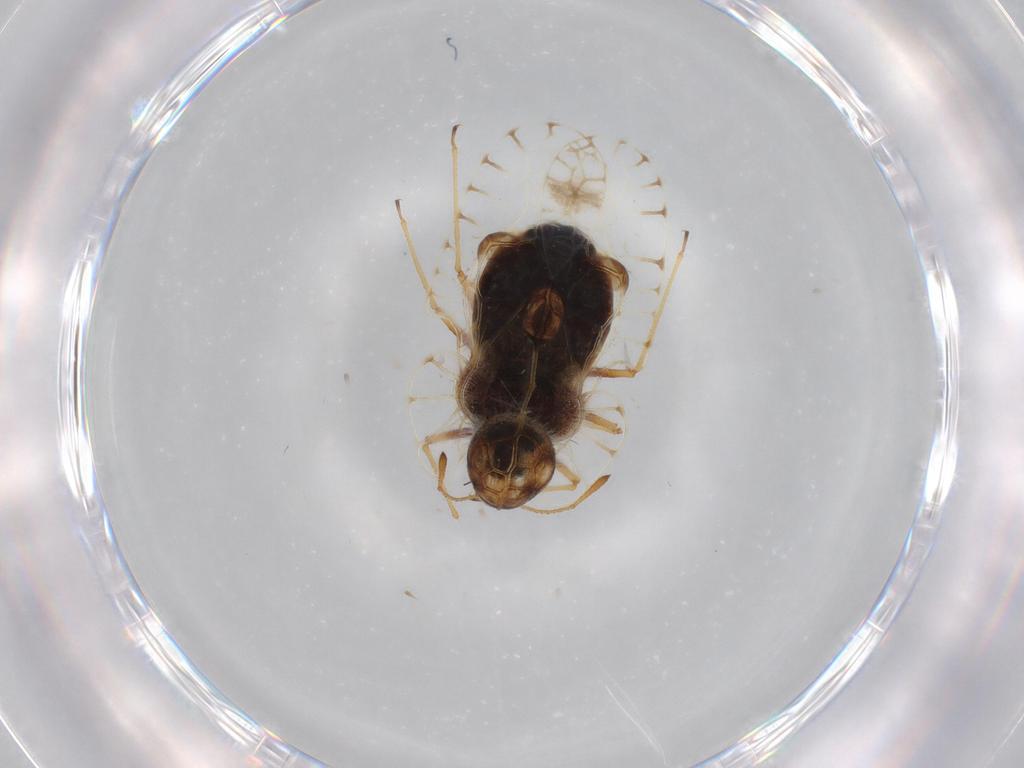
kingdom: Animalia
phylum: Arthropoda
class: Insecta
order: Hemiptera
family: Tingidae
